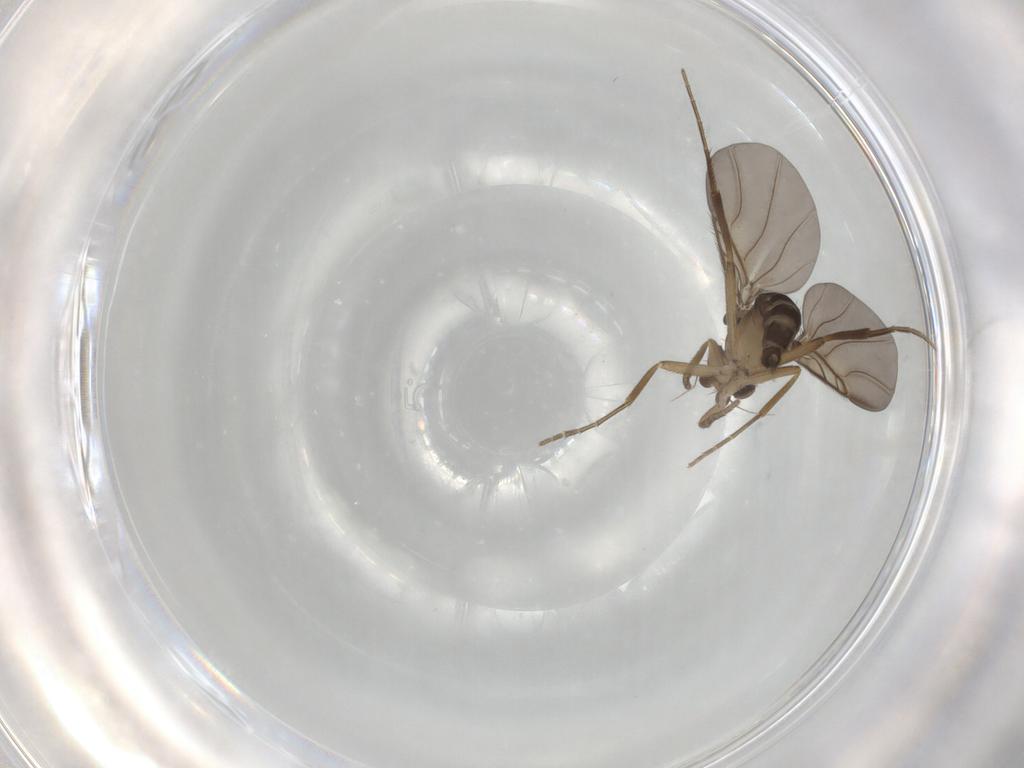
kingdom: Animalia
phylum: Arthropoda
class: Insecta
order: Diptera
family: Phoridae
